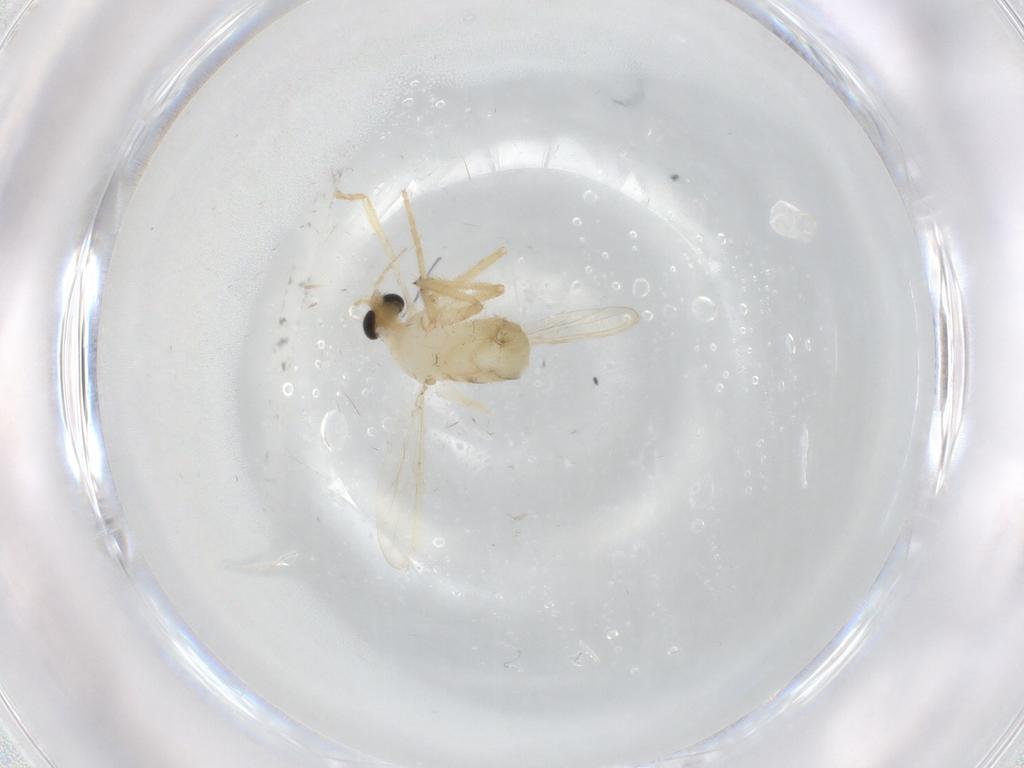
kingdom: Animalia
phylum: Arthropoda
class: Insecta
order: Diptera
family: Chironomidae
